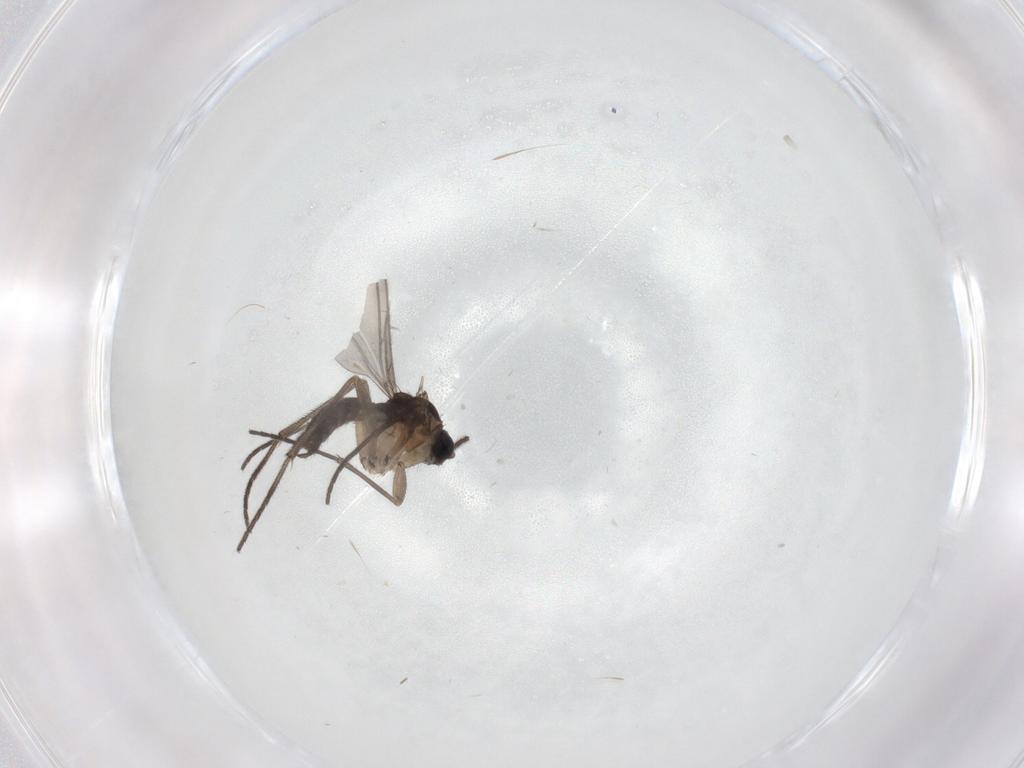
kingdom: Animalia
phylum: Arthropoda
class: Insecta
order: Diptera
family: Sciaridae
